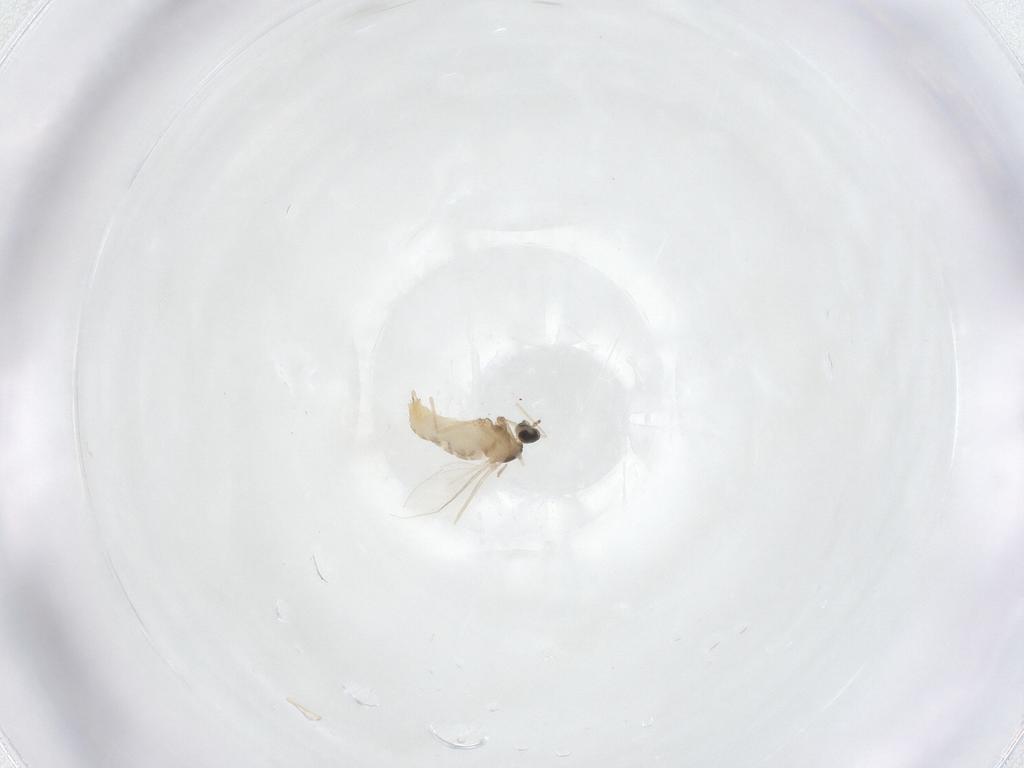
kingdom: Animalia
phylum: Arthropoda
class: Insecta
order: Diptera
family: Cecidomyiidae
